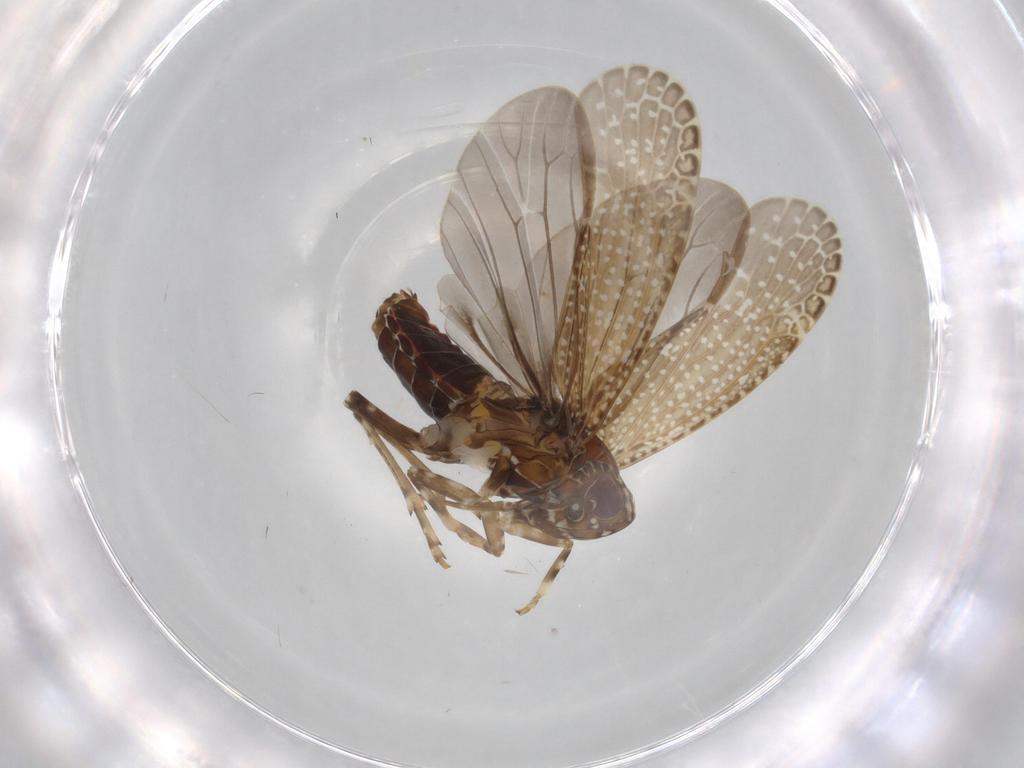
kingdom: Animalia
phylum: Arthropoda
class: Insecta
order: Hemiptera
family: Achilidae
